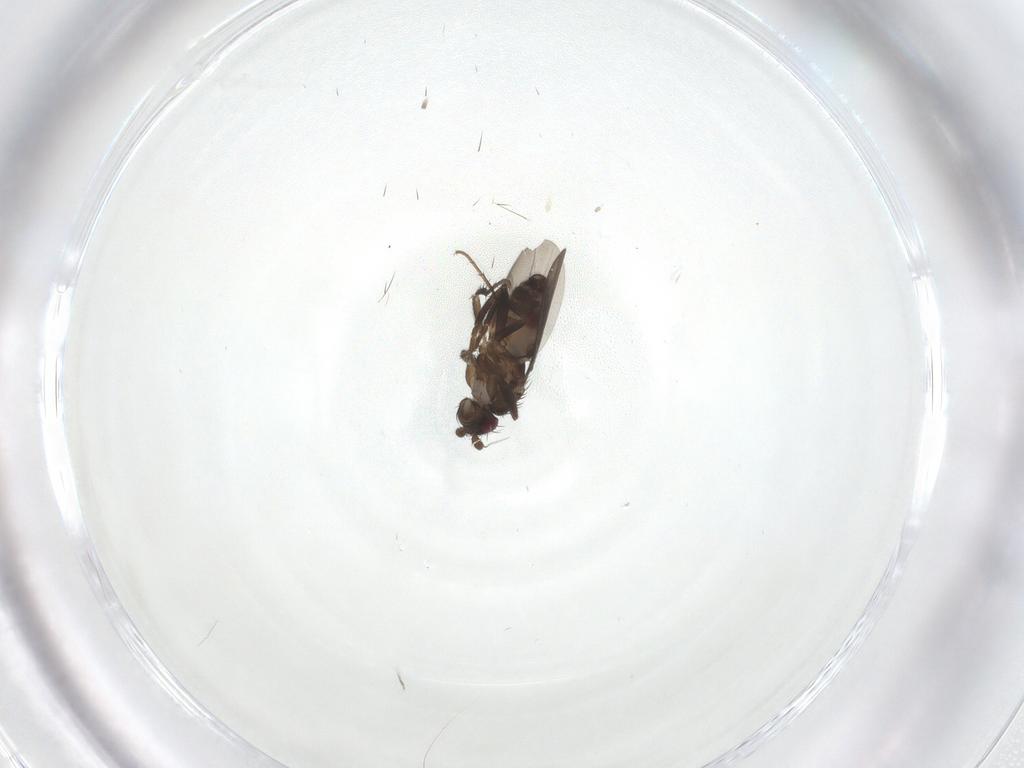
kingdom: Animalia
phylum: Arthropoda
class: Insecta
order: Diptera
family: Sphaeroceridae
